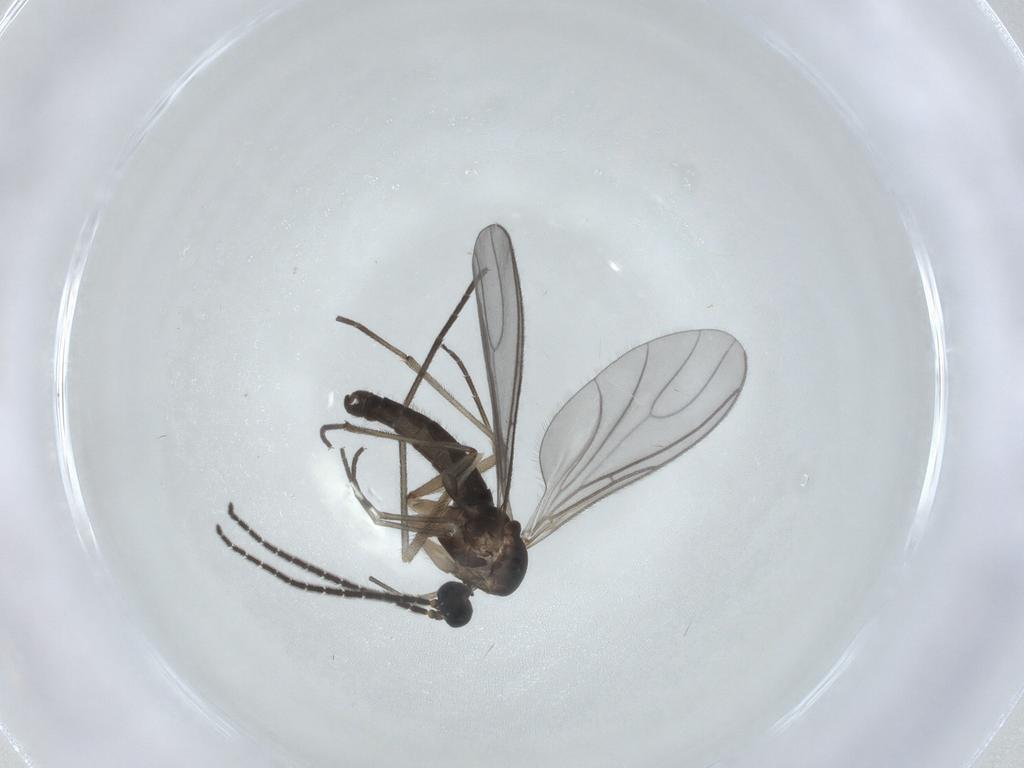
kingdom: Animalia
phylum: Arthropoda
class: Insecta
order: Diptera
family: Sciaridae
